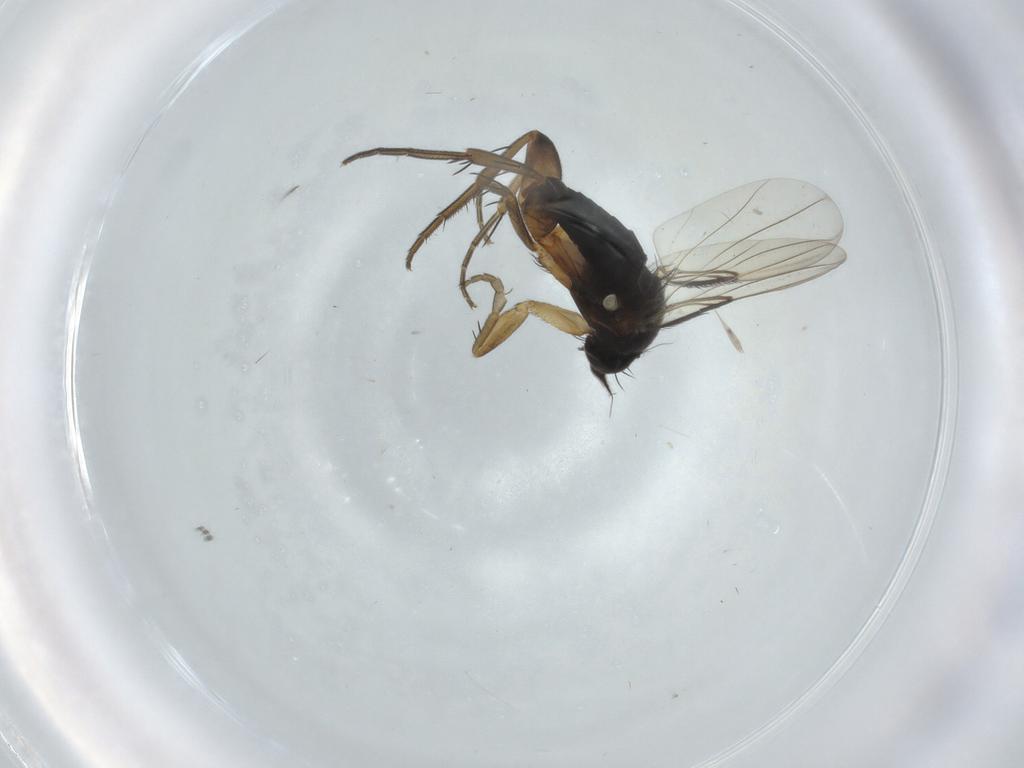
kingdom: Animalia
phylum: Arthropoda
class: Insecta
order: Diptera
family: Phoridae
